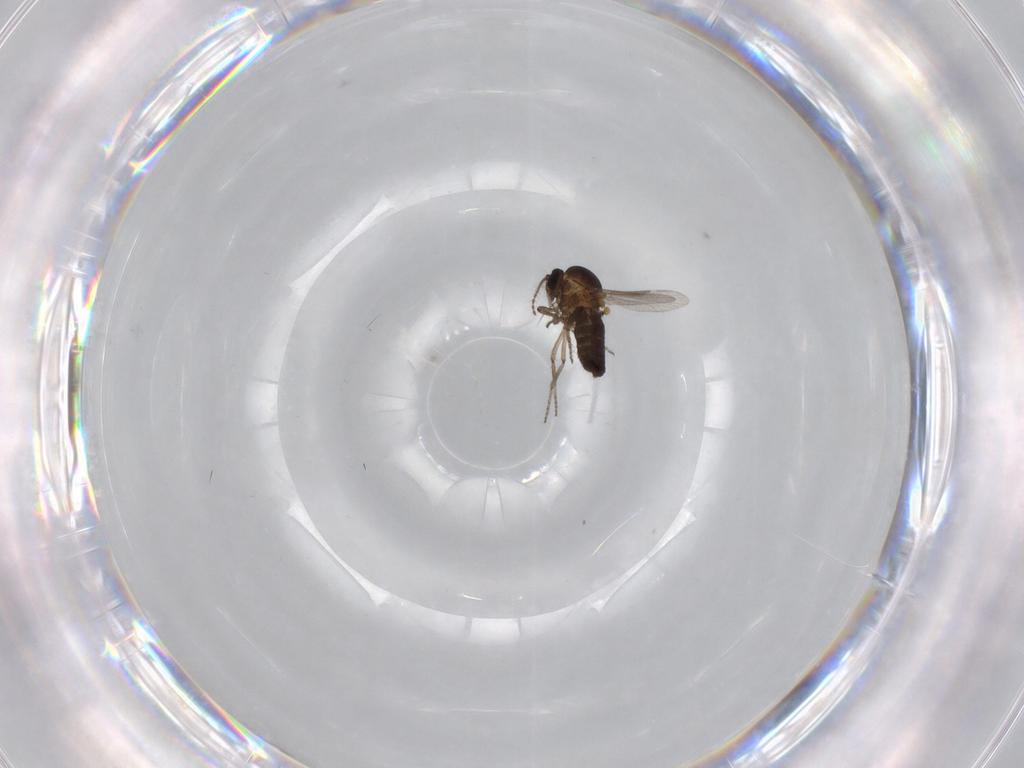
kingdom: Animalia
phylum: Arthropoda
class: Insecta
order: Diptera
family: Ceratopogonidae
